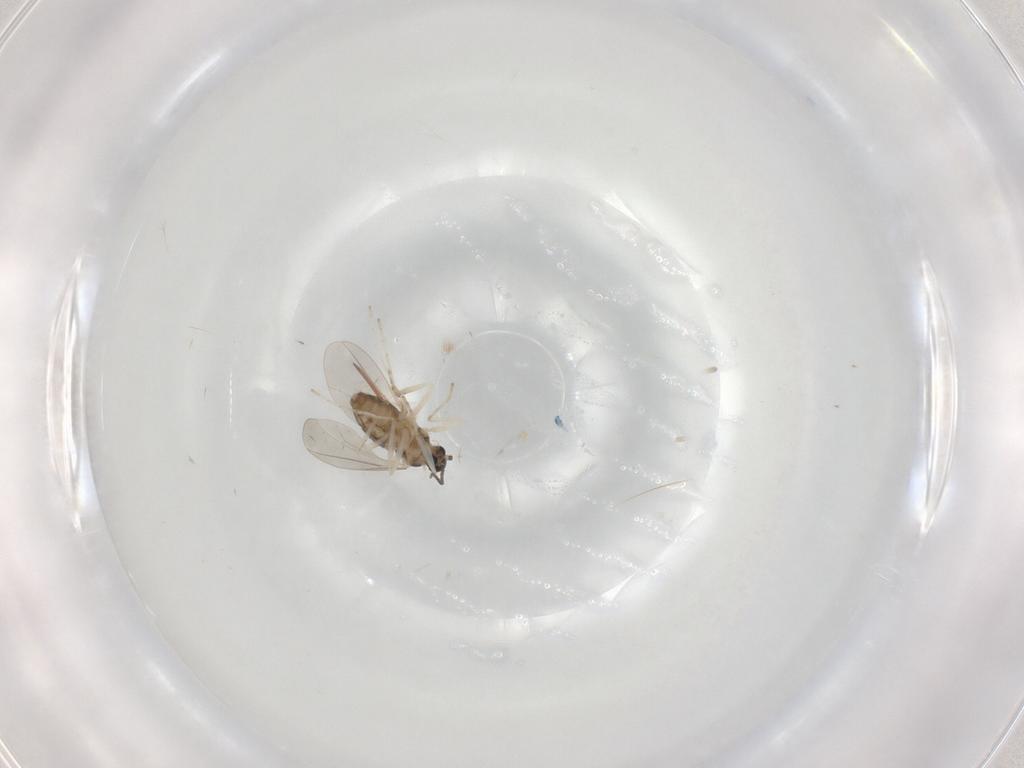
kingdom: Animalia
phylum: Arthropoda
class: Insecta
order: Diptera
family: Cecidomyiidae
